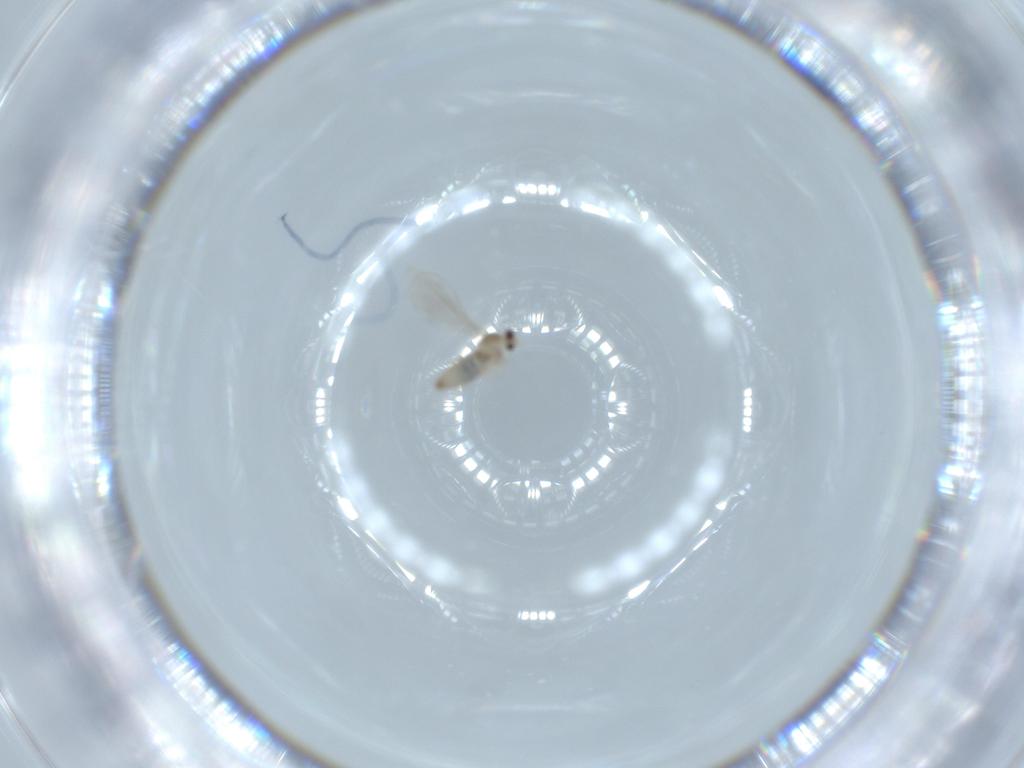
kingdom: Animalia
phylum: Arthropoda
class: Insecta
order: Diptera
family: Cecidomyiidae
